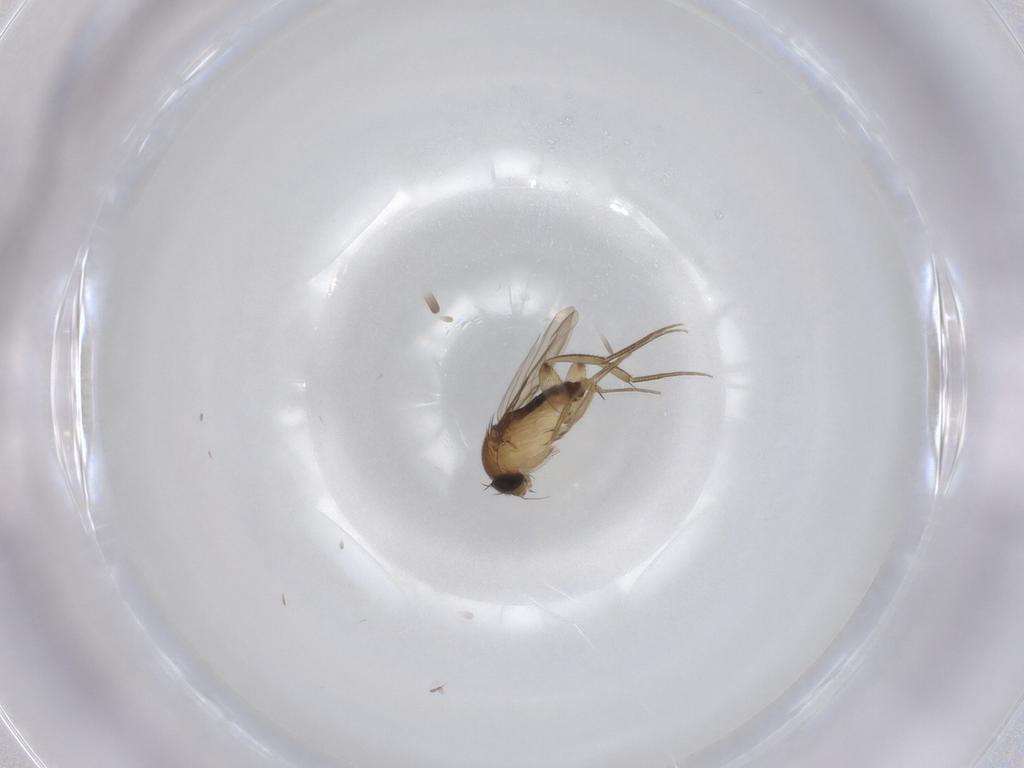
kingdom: Animalia
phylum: Arthropoda
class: Insecta
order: Diptera
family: Phoridae
